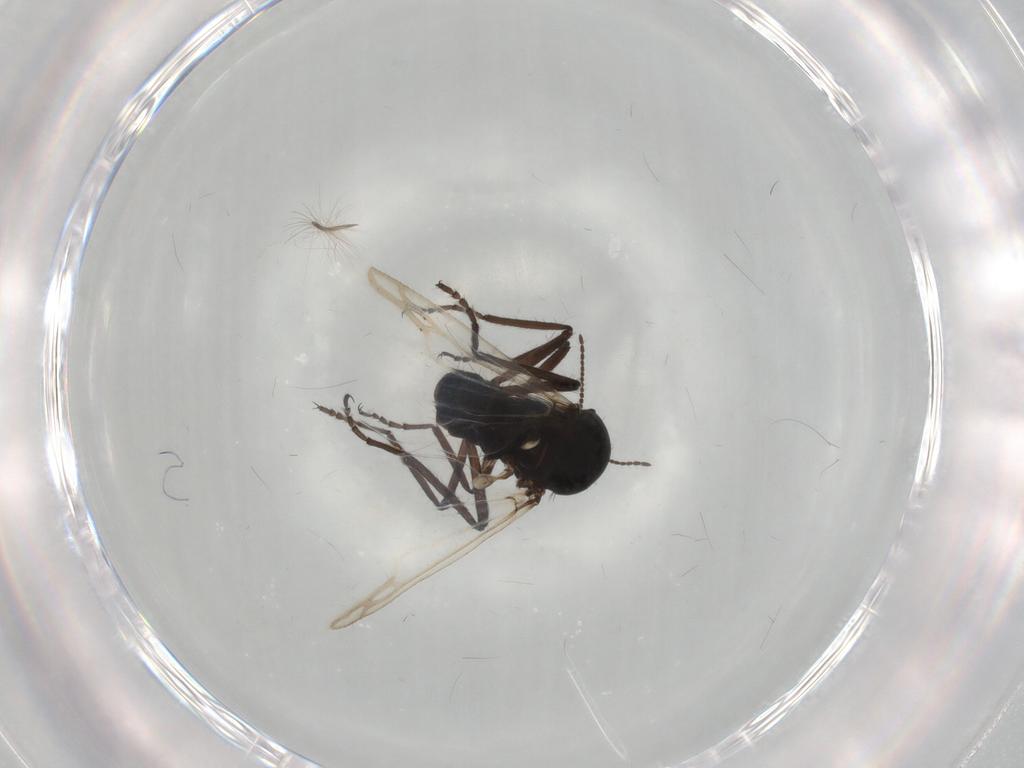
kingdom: Animalia
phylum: Arthropoda
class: Insecta
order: Diptera
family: Ceratopogonidae
